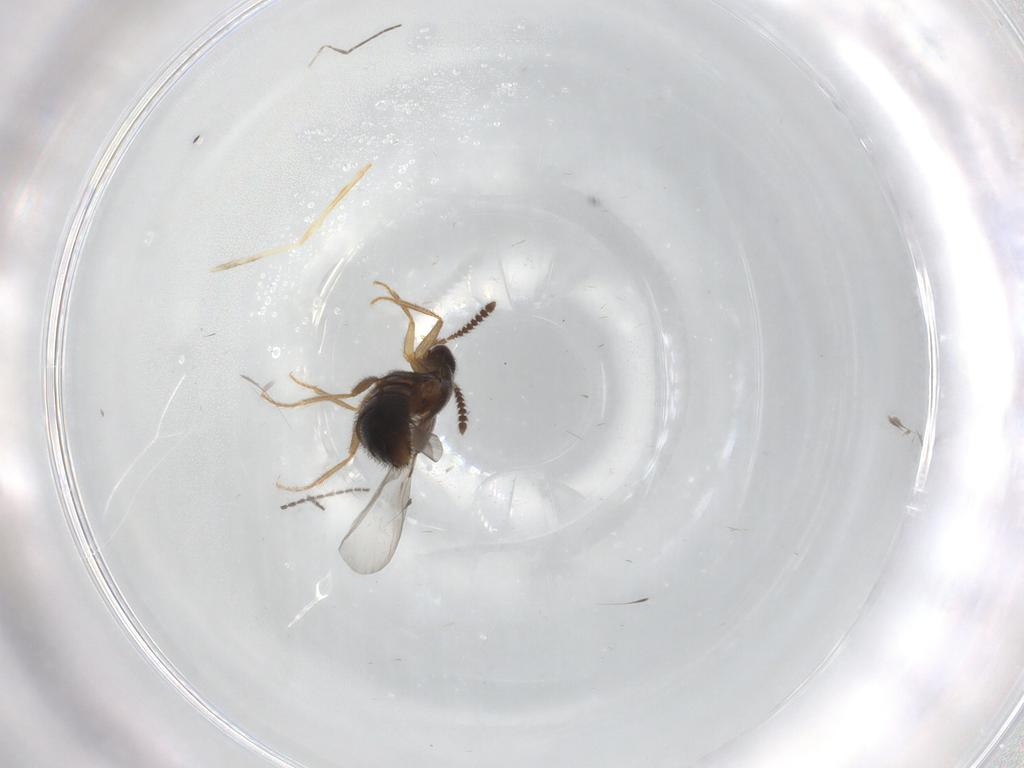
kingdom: Animalia
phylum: Arthropoda
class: Insecta
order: Coleoptera
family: Staphylinidae
